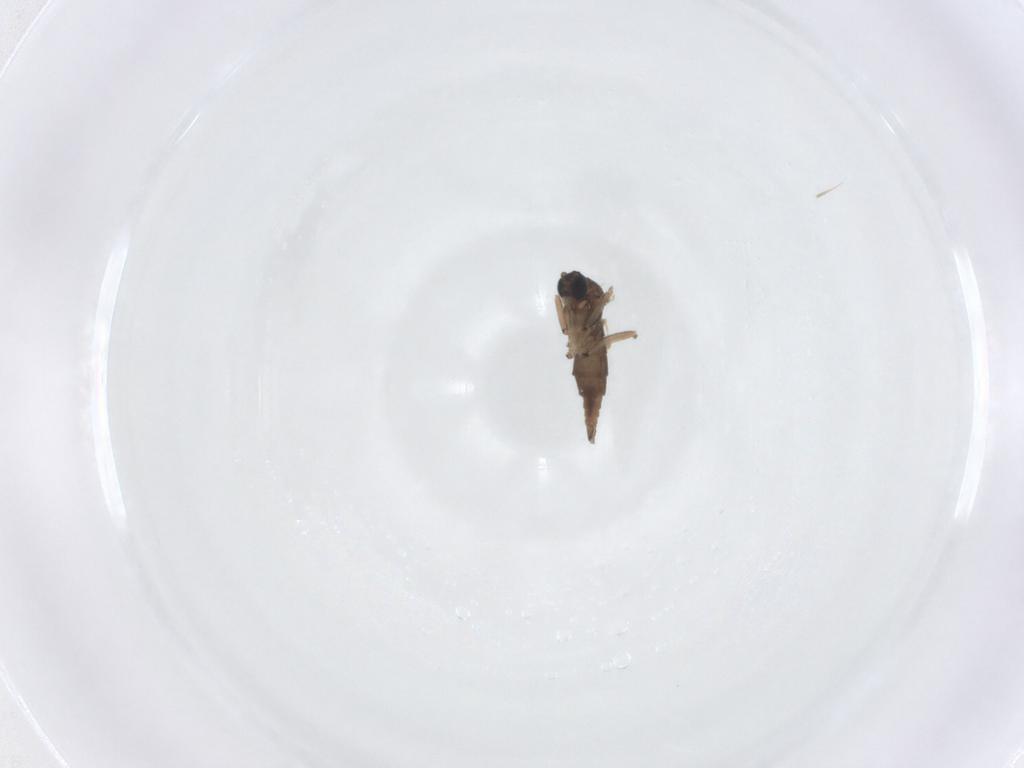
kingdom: Animalia
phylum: Arthropoda
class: Insecta
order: Diptera
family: Sciaridae
